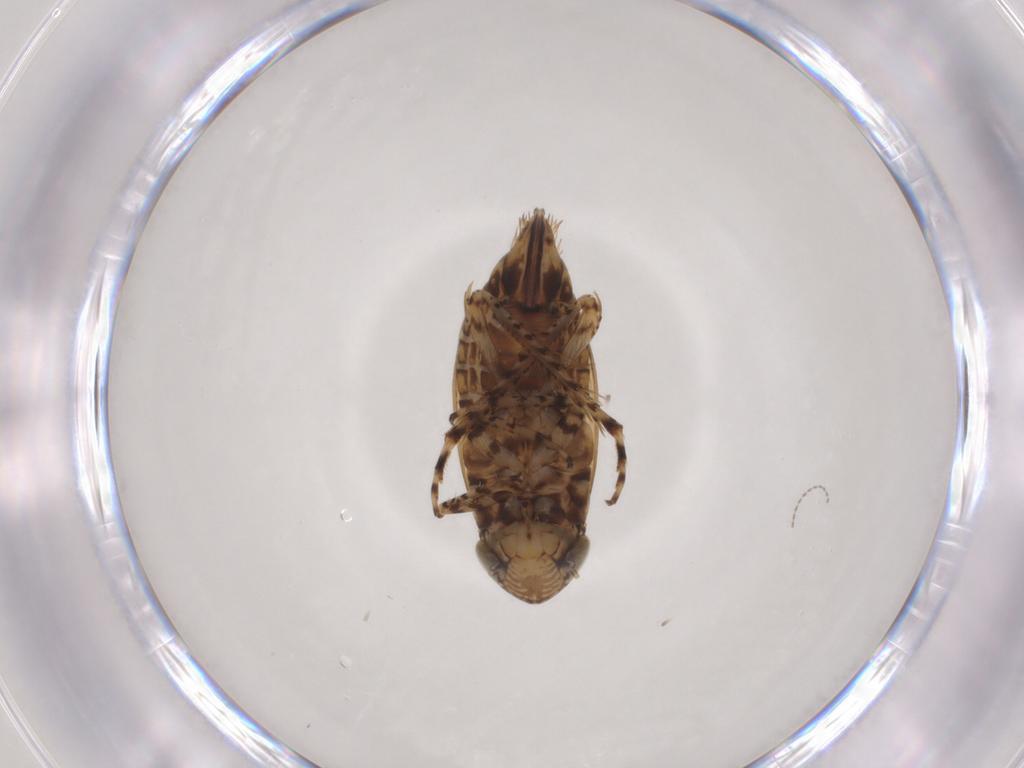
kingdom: Animalia
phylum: Arthropoda
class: Insecta
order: Hemiptera
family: Cicadellidae
